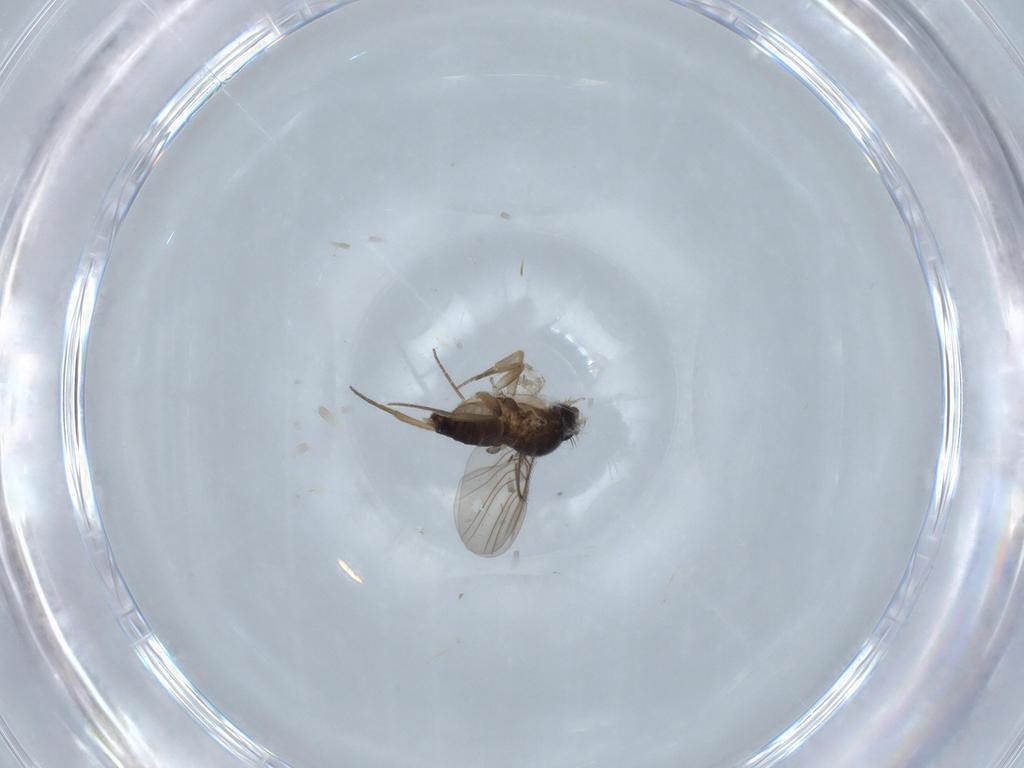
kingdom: Animalia
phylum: Arthropoda
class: Insecta
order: Diptera
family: Phoridae
